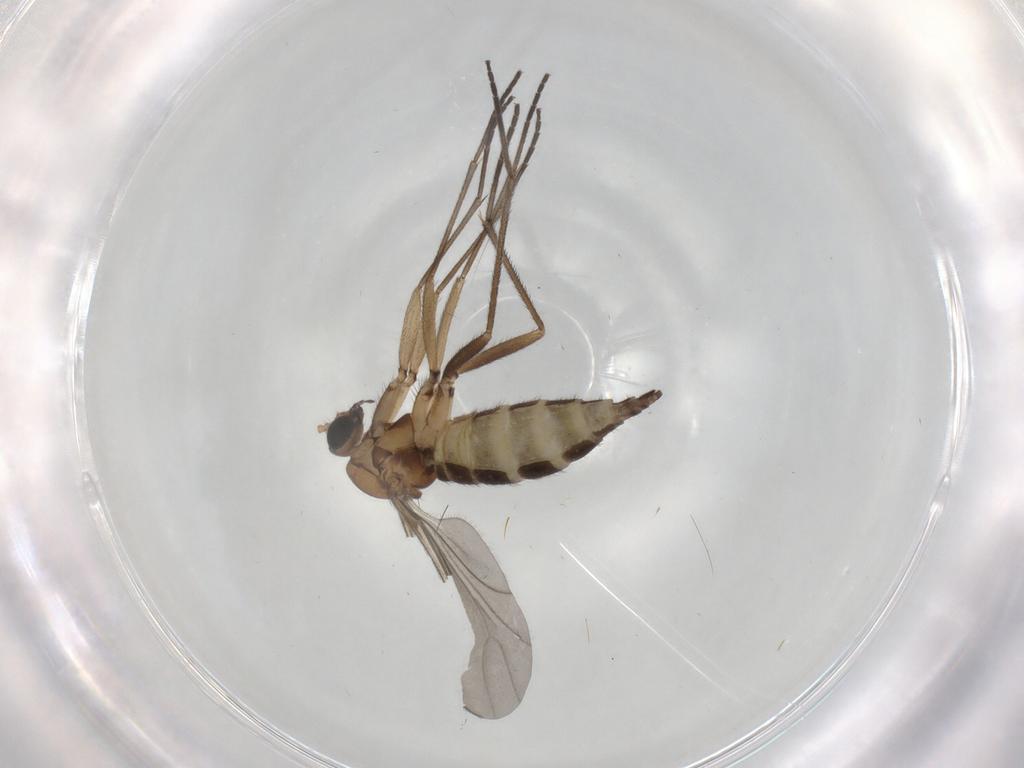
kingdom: Animalia
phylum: Arthropoda
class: Insecta
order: Diptera
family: Sciaridae
